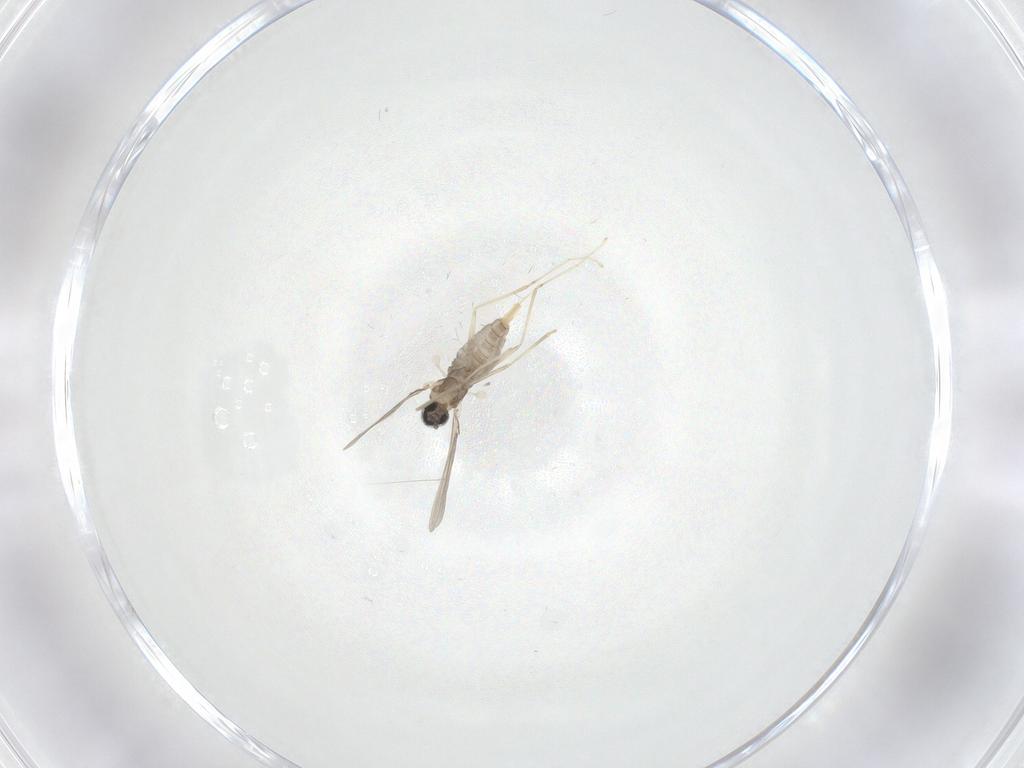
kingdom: Animalia
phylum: Arthropoda
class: Insecta
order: Diptera
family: Cecidomyiidae
